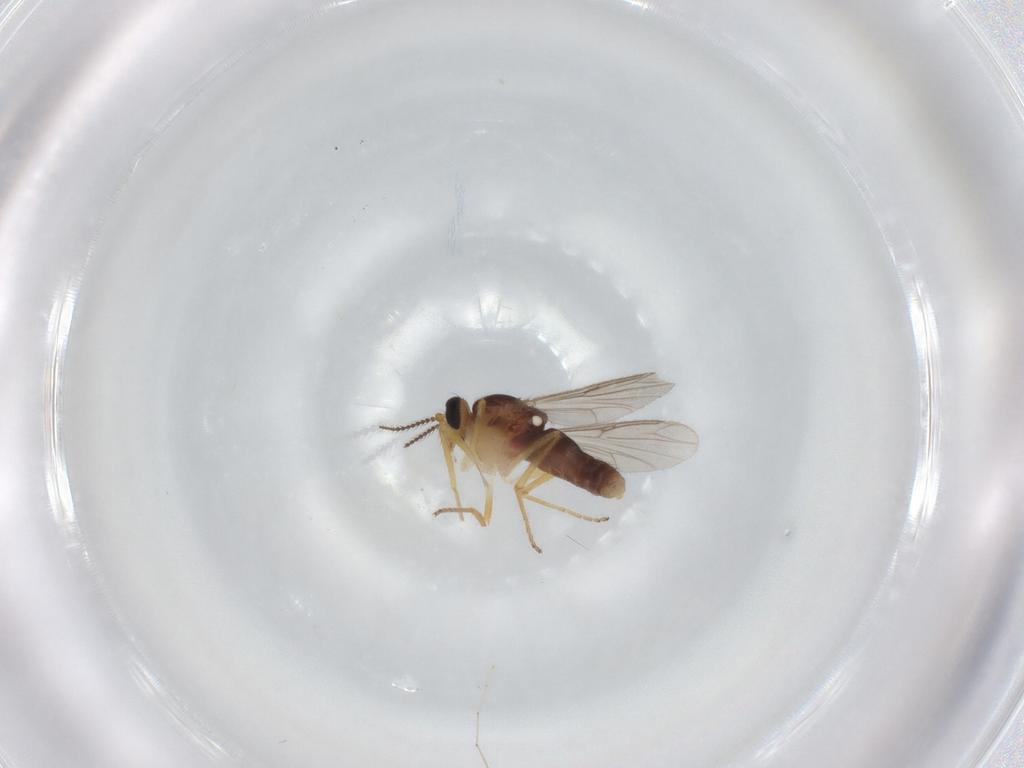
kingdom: Animalia
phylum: Arthropoda
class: Insecta
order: Diptera
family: Ceratopogonidae
